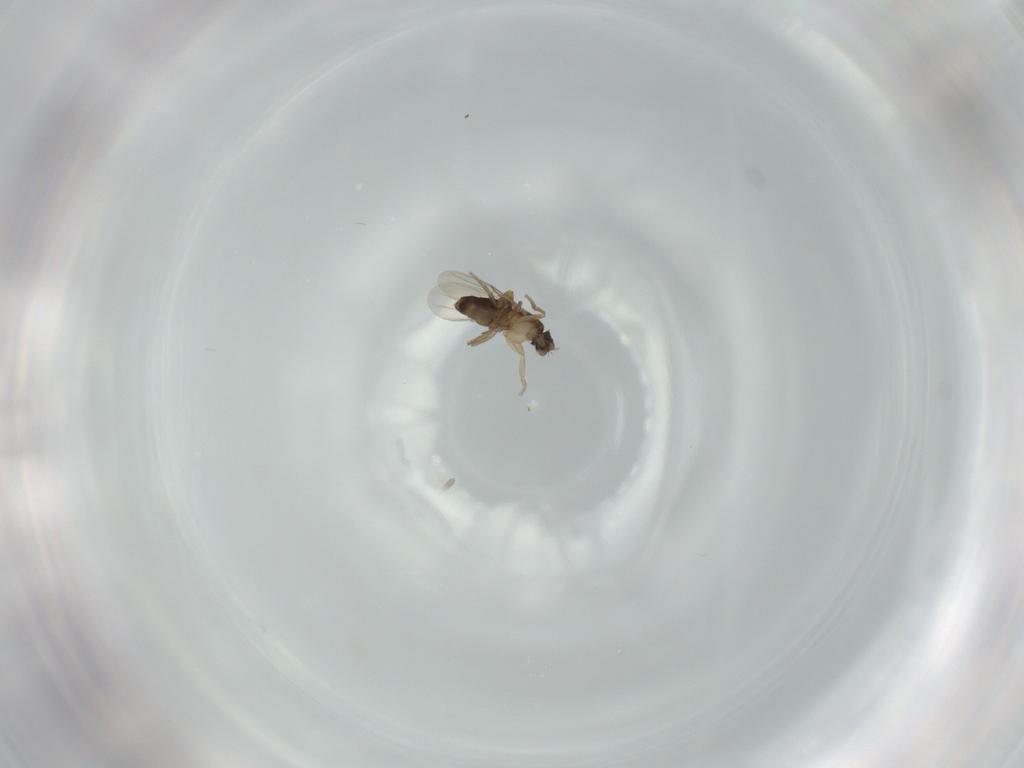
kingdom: Animalia
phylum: Arthropoda
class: Insecta
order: Diptera
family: Phoridae
